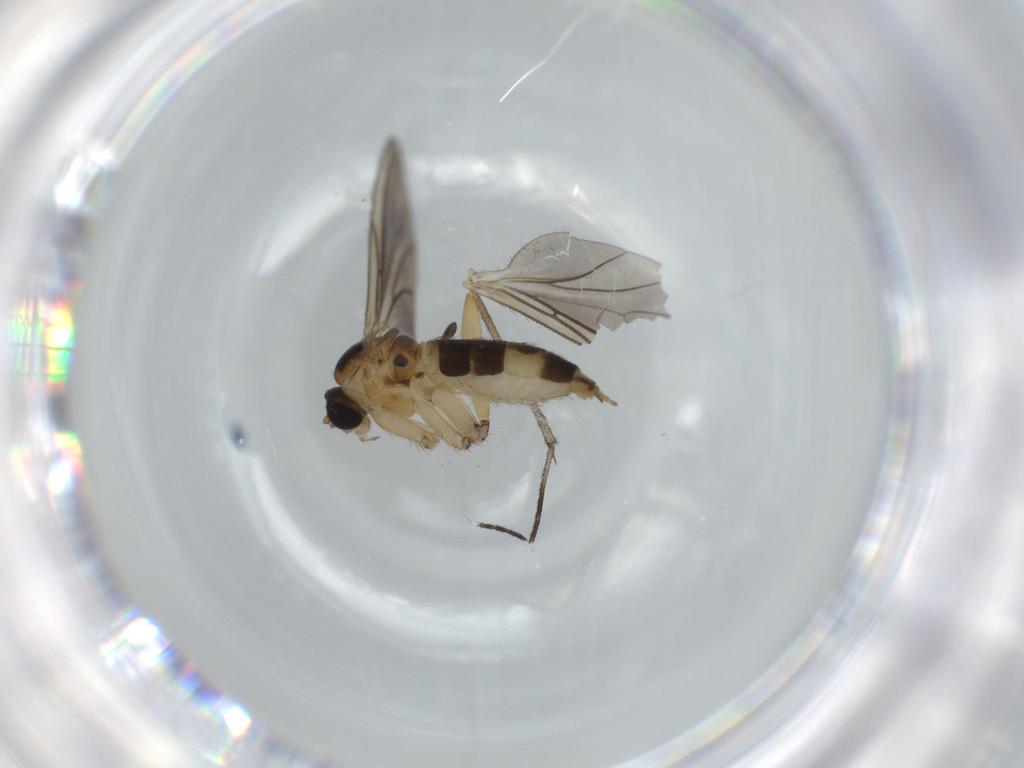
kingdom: Animalia
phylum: Arthropoda
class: Insecta
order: Diptera
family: Sciaridae
